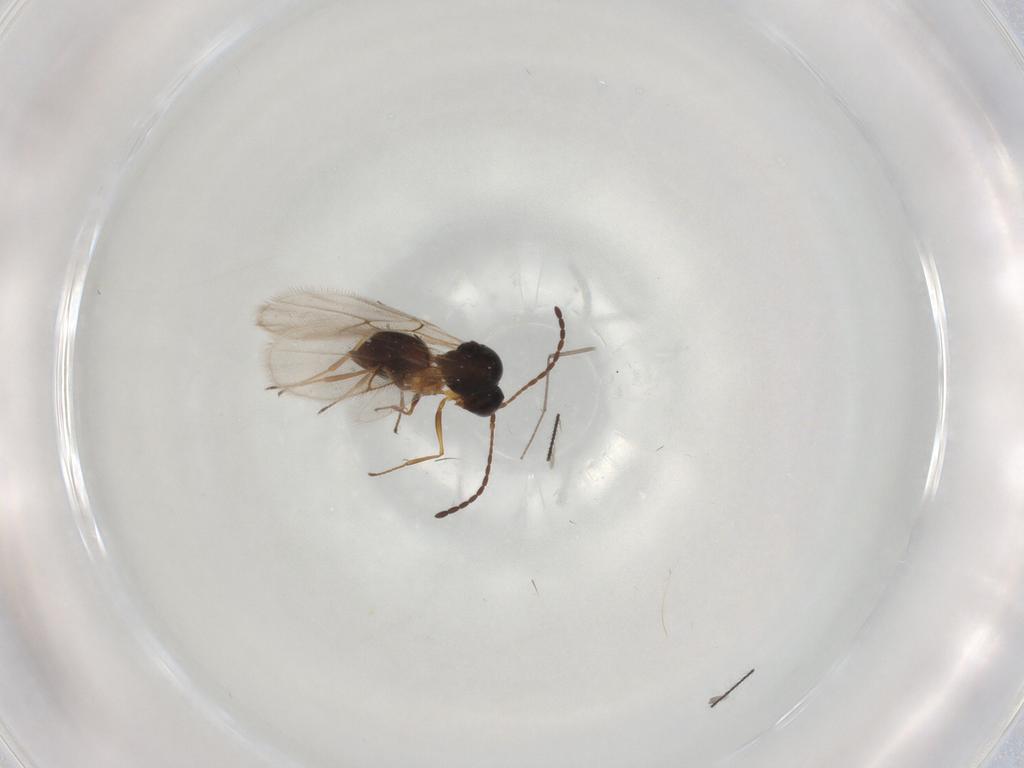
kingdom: Animalia
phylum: Arthropoda
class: Insecta
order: Hymenoptera
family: Figitidae
